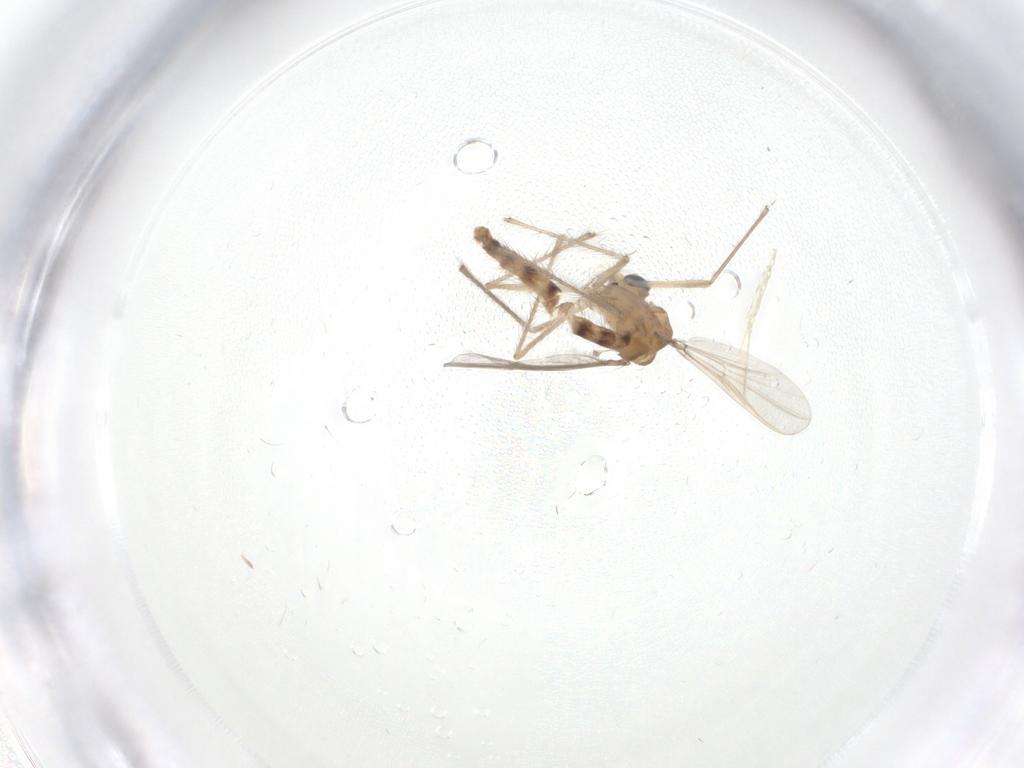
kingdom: Animalia
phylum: Arthropoda
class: Insecta
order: Diptera
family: Chironomidae
